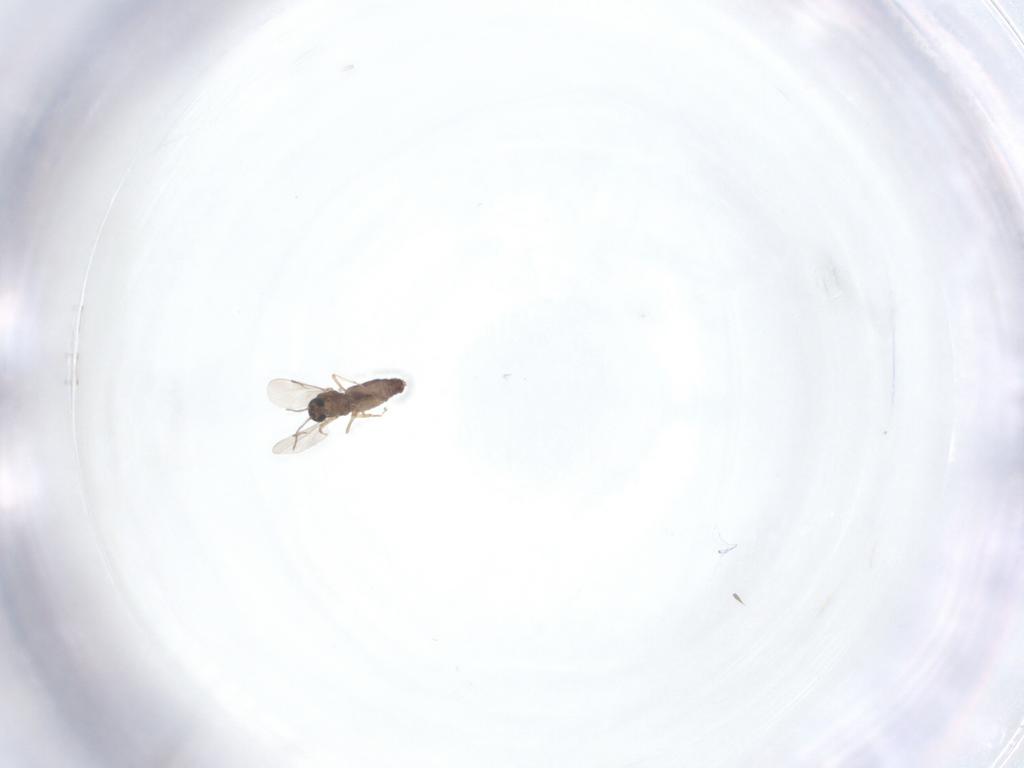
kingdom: Animalia
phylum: Arthropoda
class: Insecta
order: Diptera
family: Ceratopogonidae
